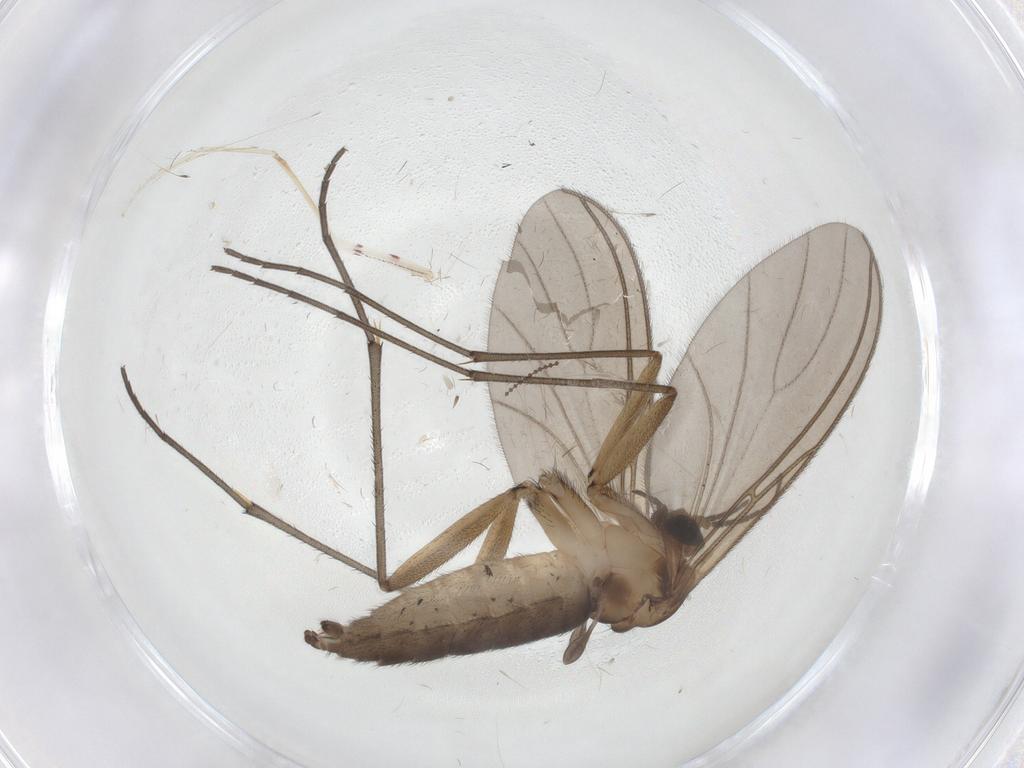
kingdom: Animalia
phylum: Arthropoda
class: Insecta
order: Diptera
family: Sciaridae
